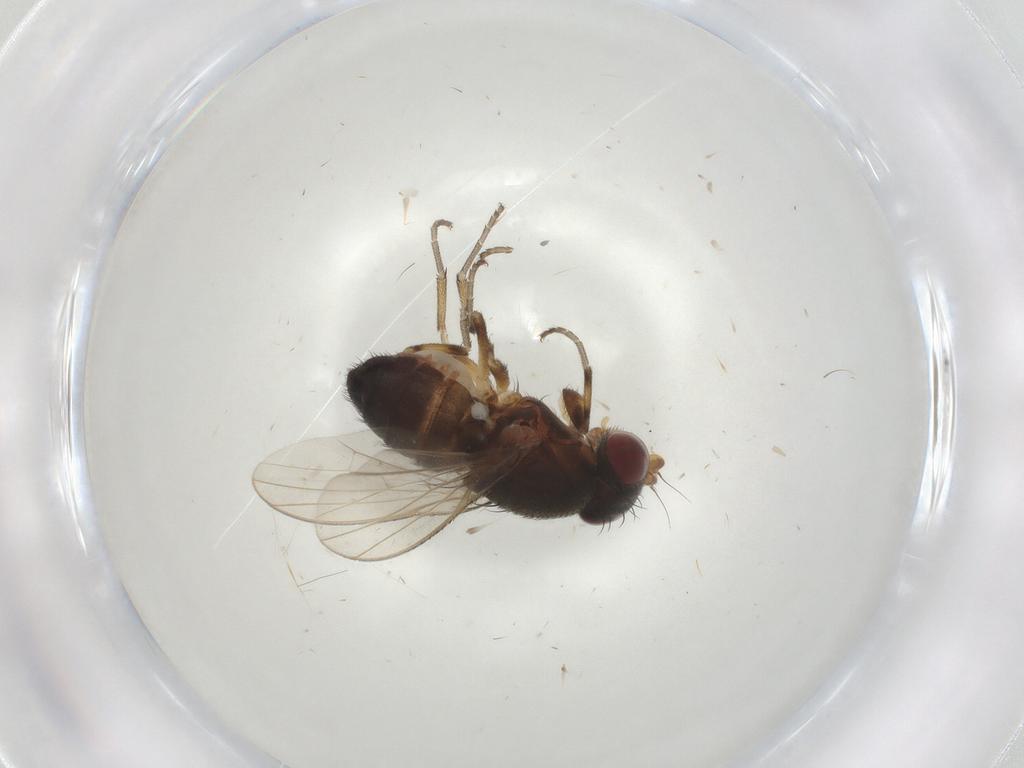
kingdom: Animalia
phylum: Arthropoda
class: Insecta
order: Diptera
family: Heleomyzidae
